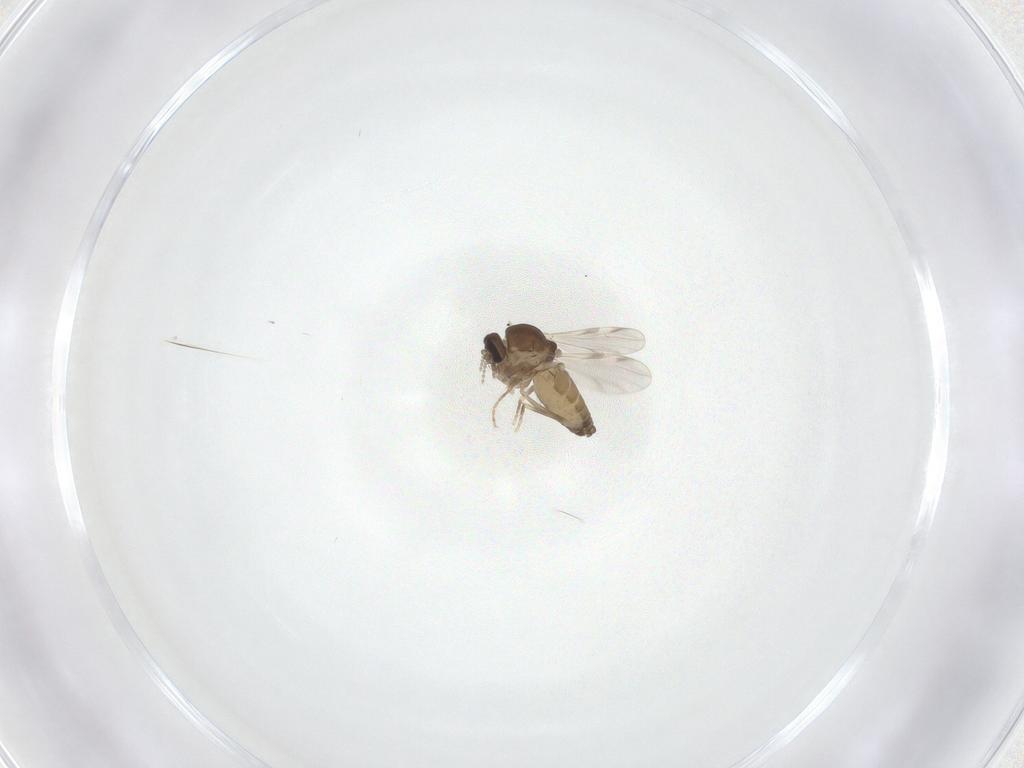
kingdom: Animalia
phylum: Arthropoda
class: Insecta
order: Diptera
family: Ceratopogonidae
